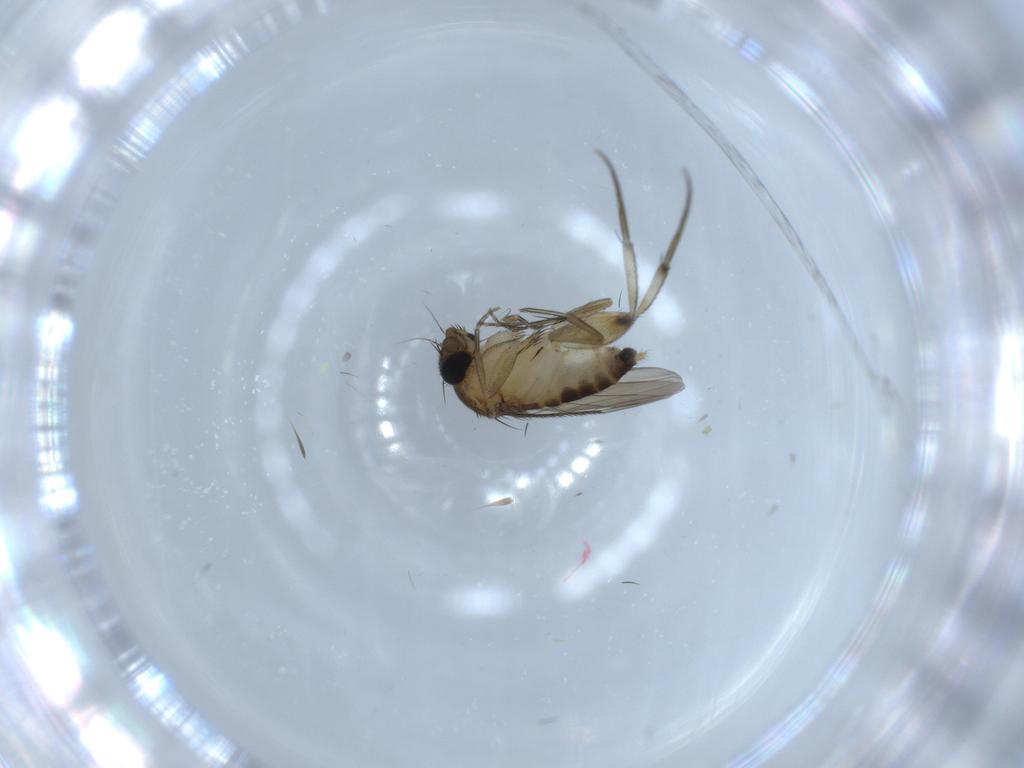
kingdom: Animalia
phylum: Arthropoda
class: Insecta
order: Diptera
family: Phoridae
